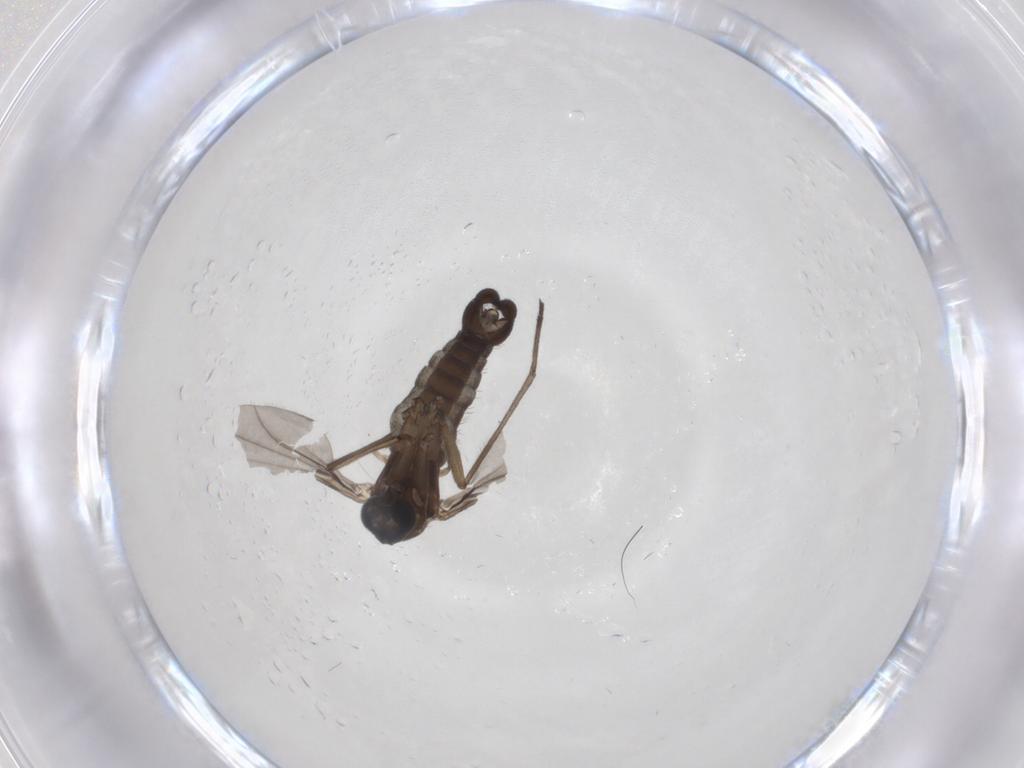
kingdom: Animalia
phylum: Arthropoda
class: Insecta
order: Diptera
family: Sciaridae
